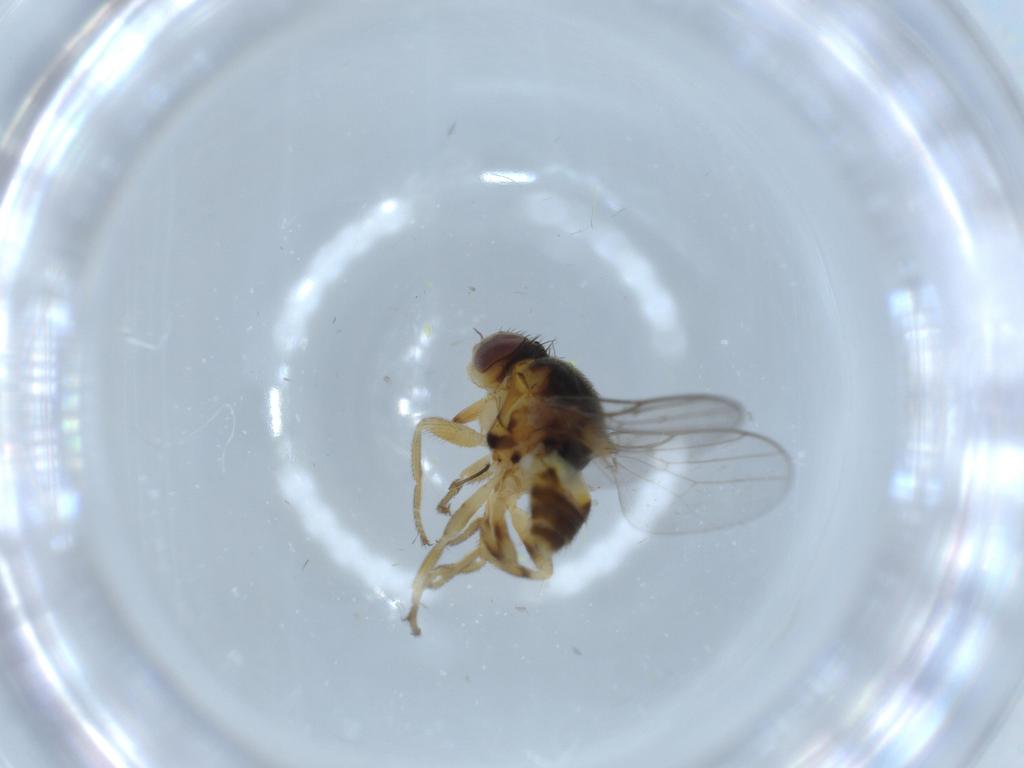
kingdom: Animalia
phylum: Arthropoda
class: Insecta
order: Diptera
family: Chloropidae
